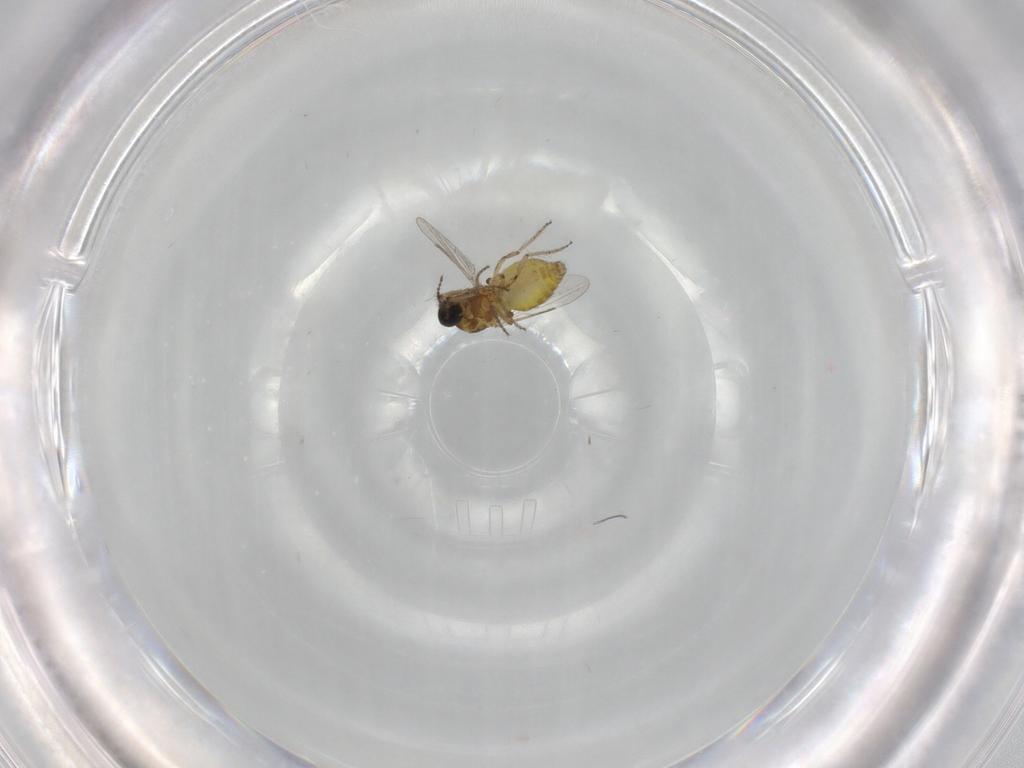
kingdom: Animalia
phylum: Arthropoda
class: Insecta
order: Diptera
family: Ceratopogonidae
